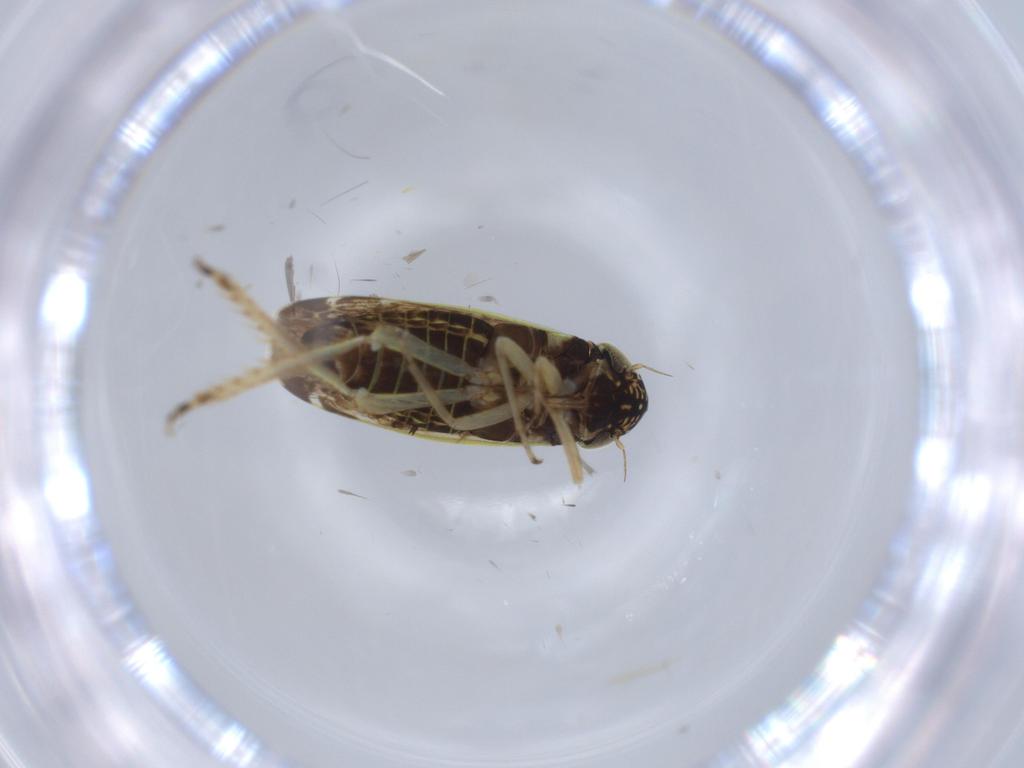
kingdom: Animalia
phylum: Arthropoda
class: Insecta
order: Hemiptera
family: Cicadellidae
